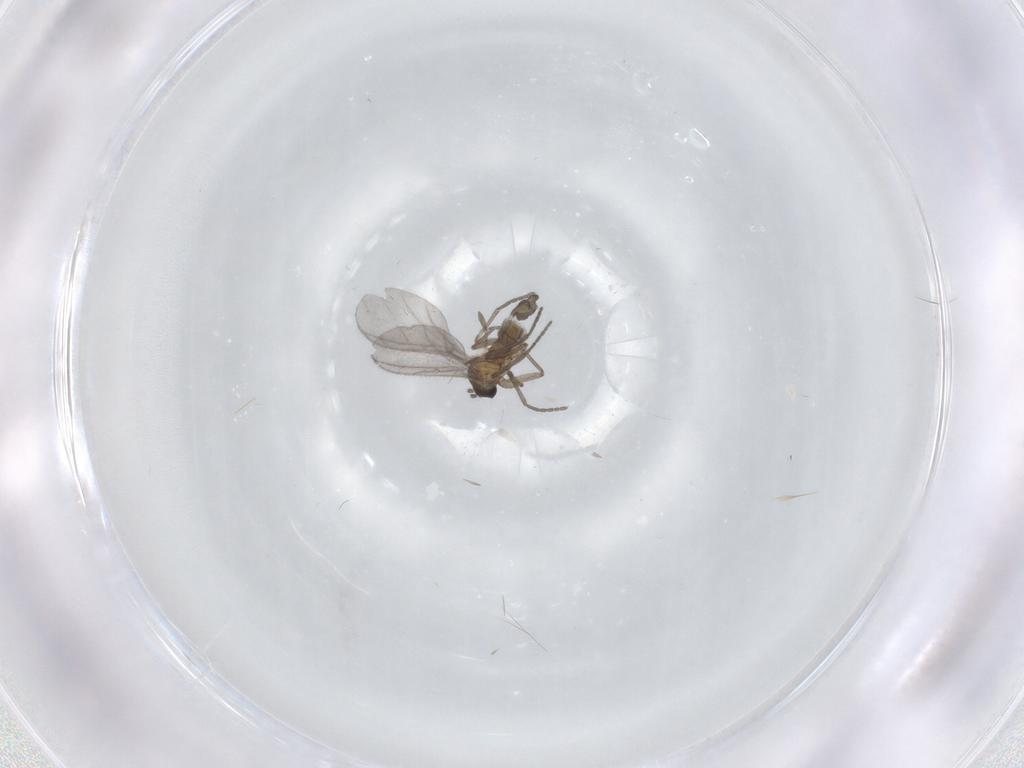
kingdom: Animalia
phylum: Arthropoda
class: Insecta
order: Diptera
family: Sciaridae
